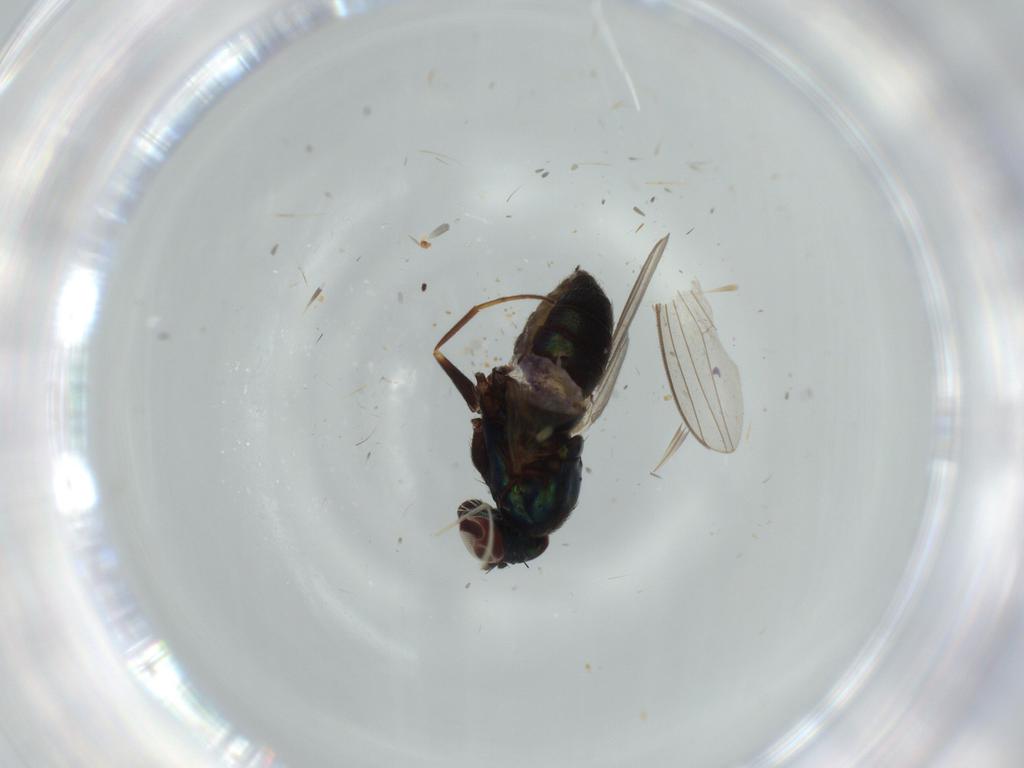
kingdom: Animalia
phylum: Arthropoda
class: Insecta
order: Diptera
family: Dolichopodidae
